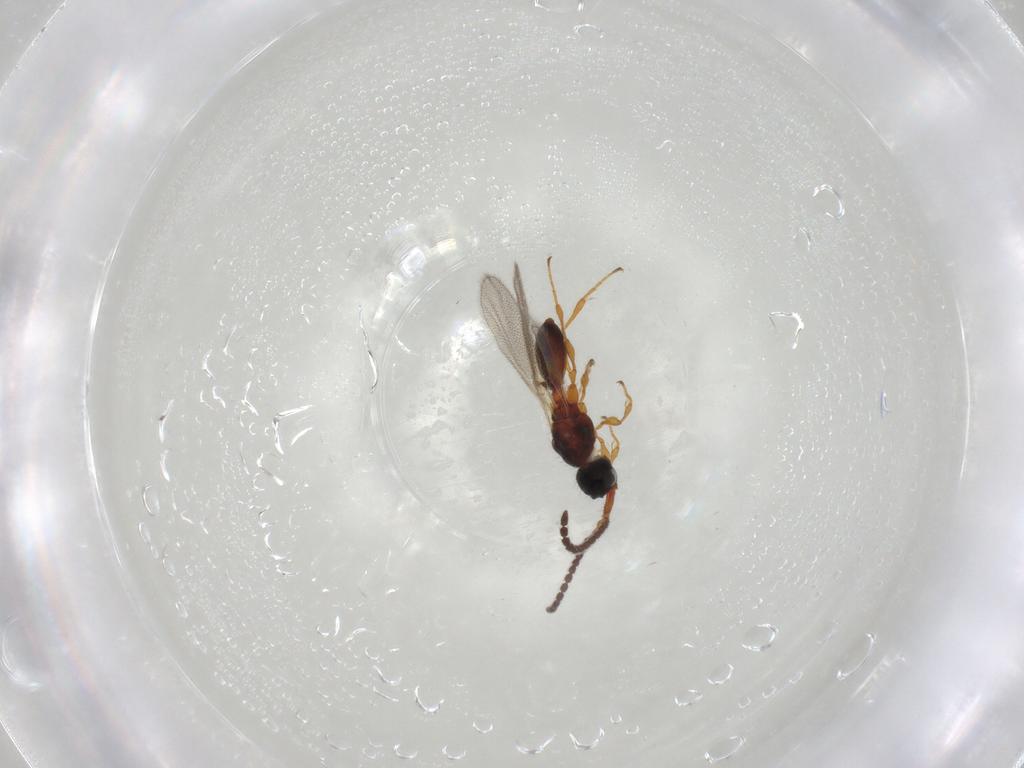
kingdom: Animalia
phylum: Arthropoda
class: Insecta
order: Hymenoptera
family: Diapriidae
